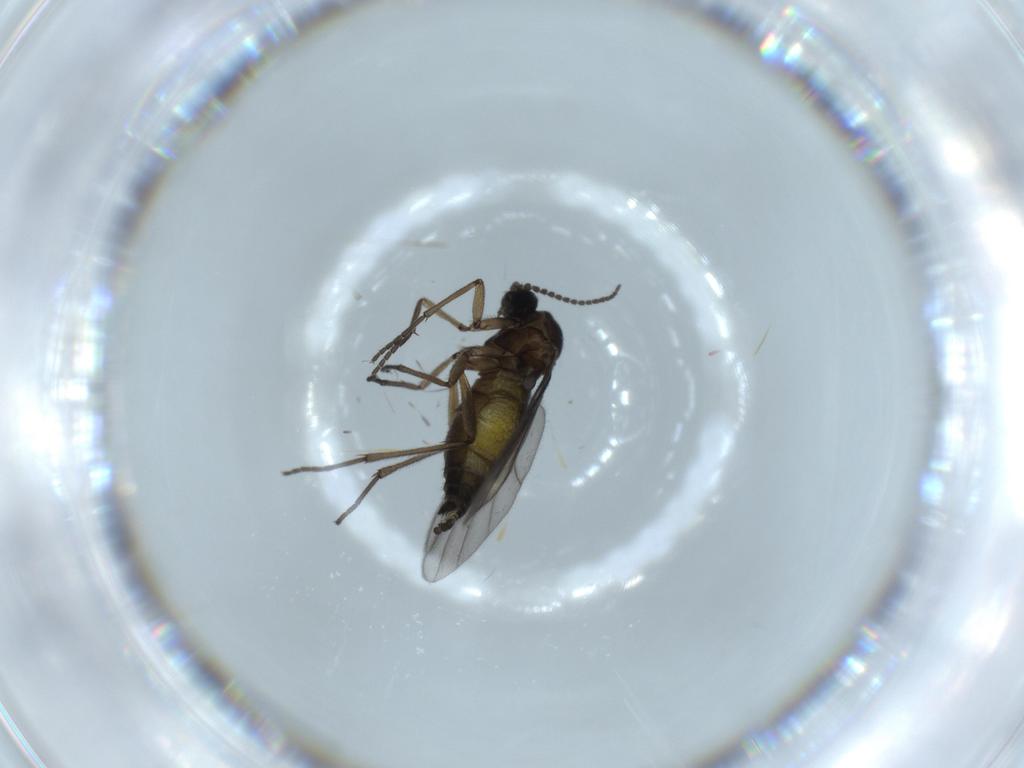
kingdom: Animalia
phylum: Arthropoda
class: Insecta
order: Diptera
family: Sciaridae
